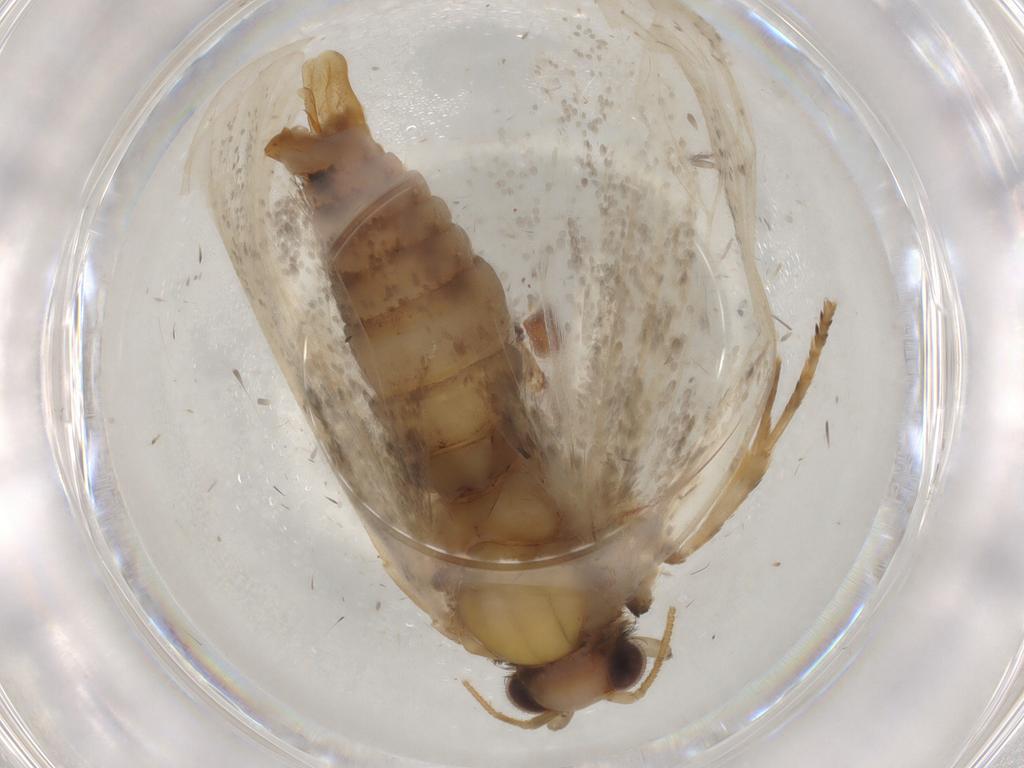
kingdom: Animalia
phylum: Arthropoda
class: Insecta
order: Lepidoptera
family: Tineidae
